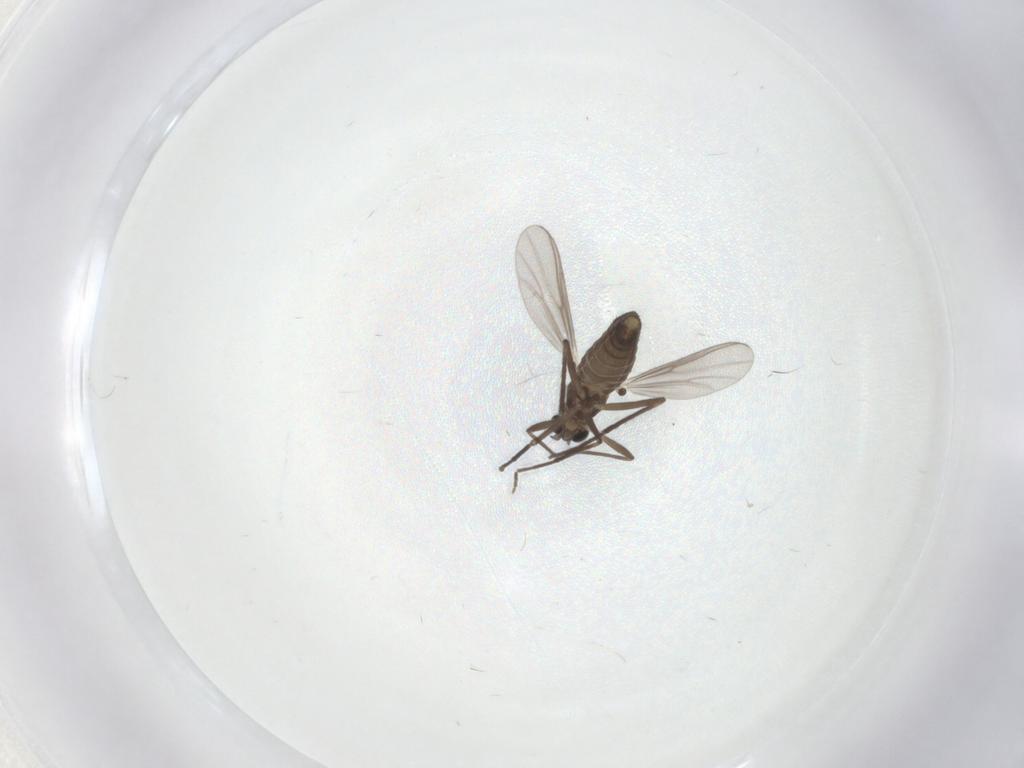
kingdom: Animalia
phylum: Arthropoda
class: Insecta
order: Diptera
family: Chironomidae
